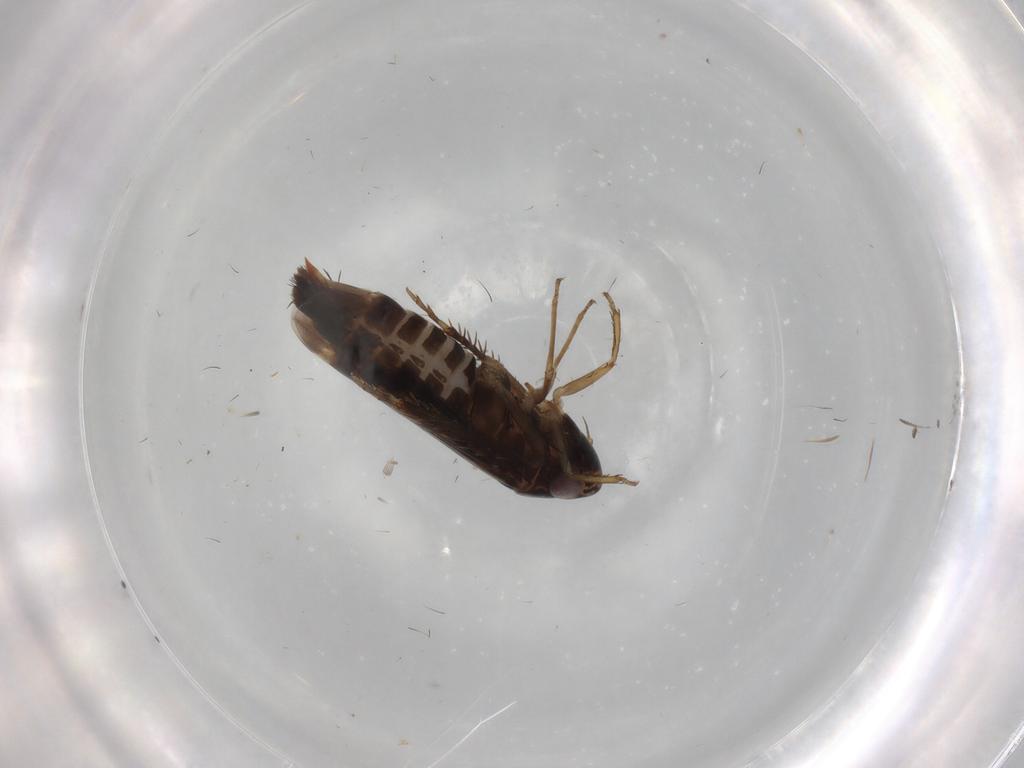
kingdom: Animalia
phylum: Arthropoda
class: Insecta
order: Hemiptera
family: Cicadellidae
